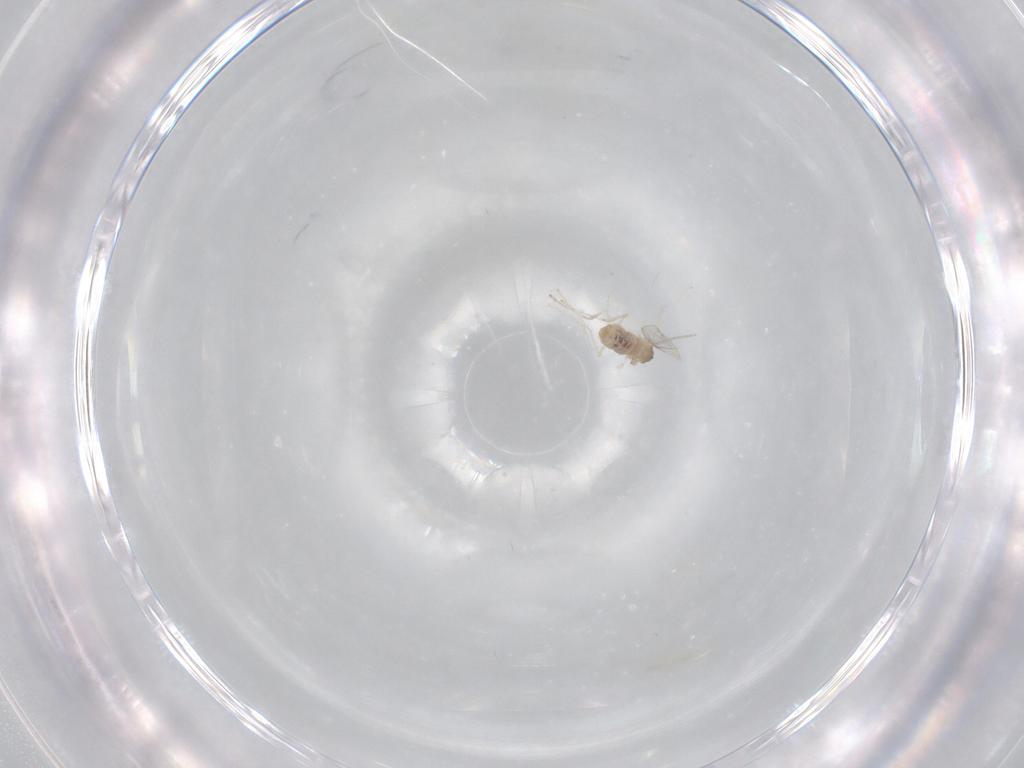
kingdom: Animalia
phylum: Arthropoda
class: Insecta
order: Diptera
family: Cecidomyiidae
